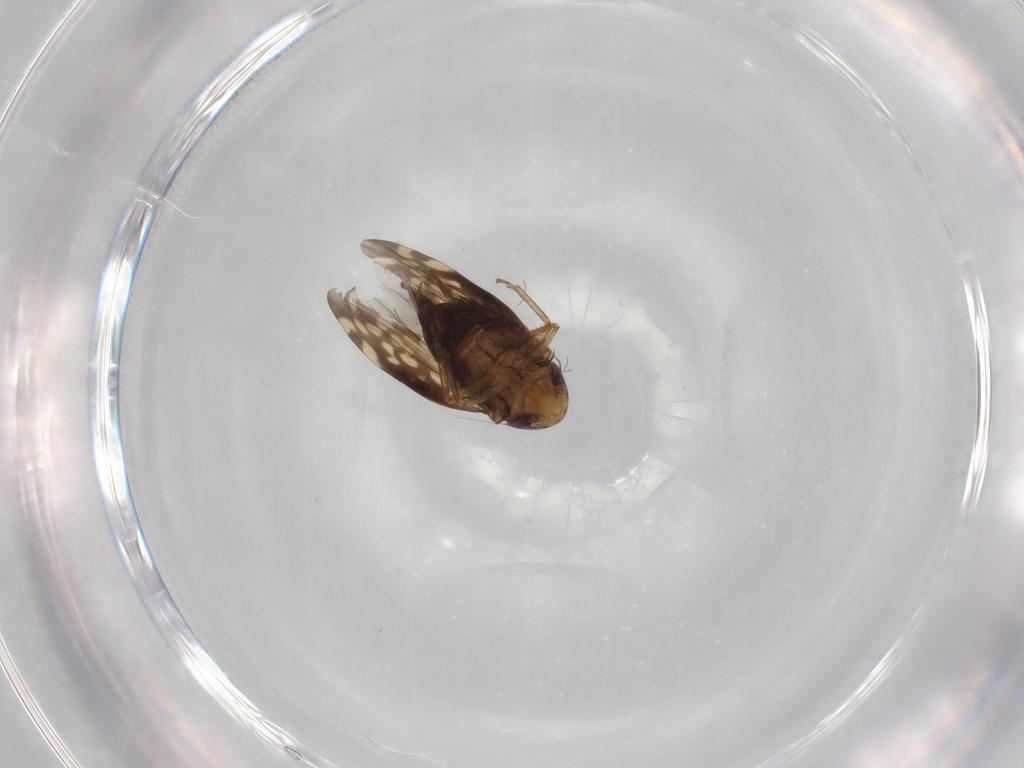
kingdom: Animalia
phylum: Arthropoda
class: Insecta
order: Hemiptera
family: Cicadellidae
